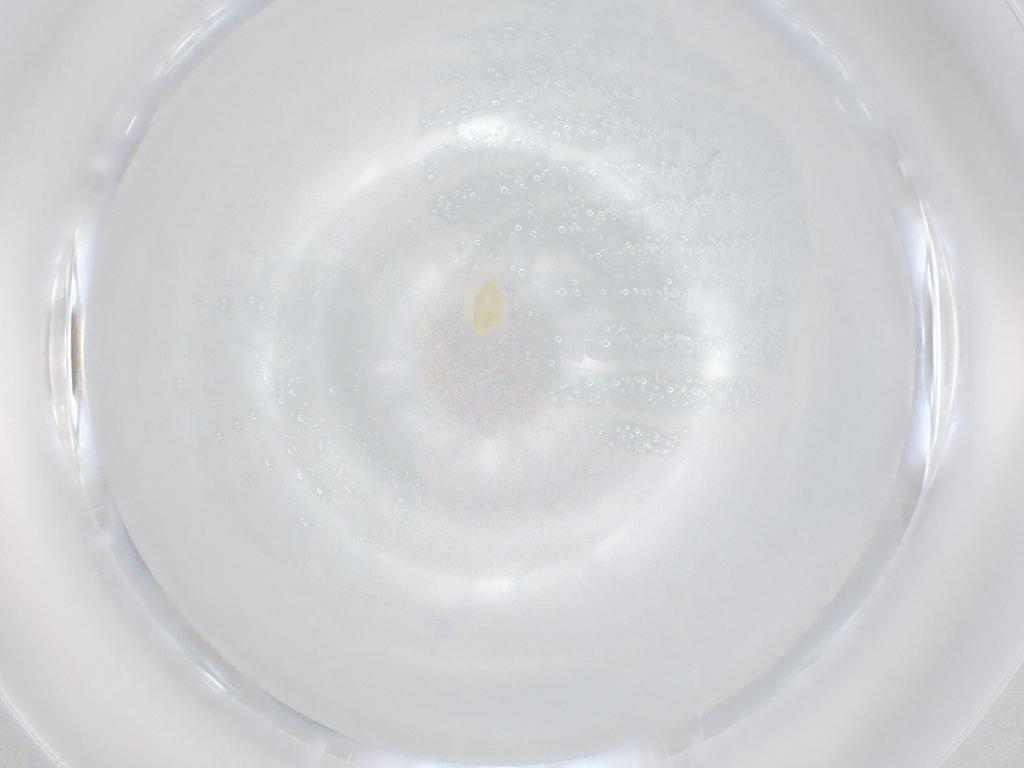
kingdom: Animalia
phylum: Arthropoda
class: Arachnida
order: Trombidiformes
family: Eupodidae
